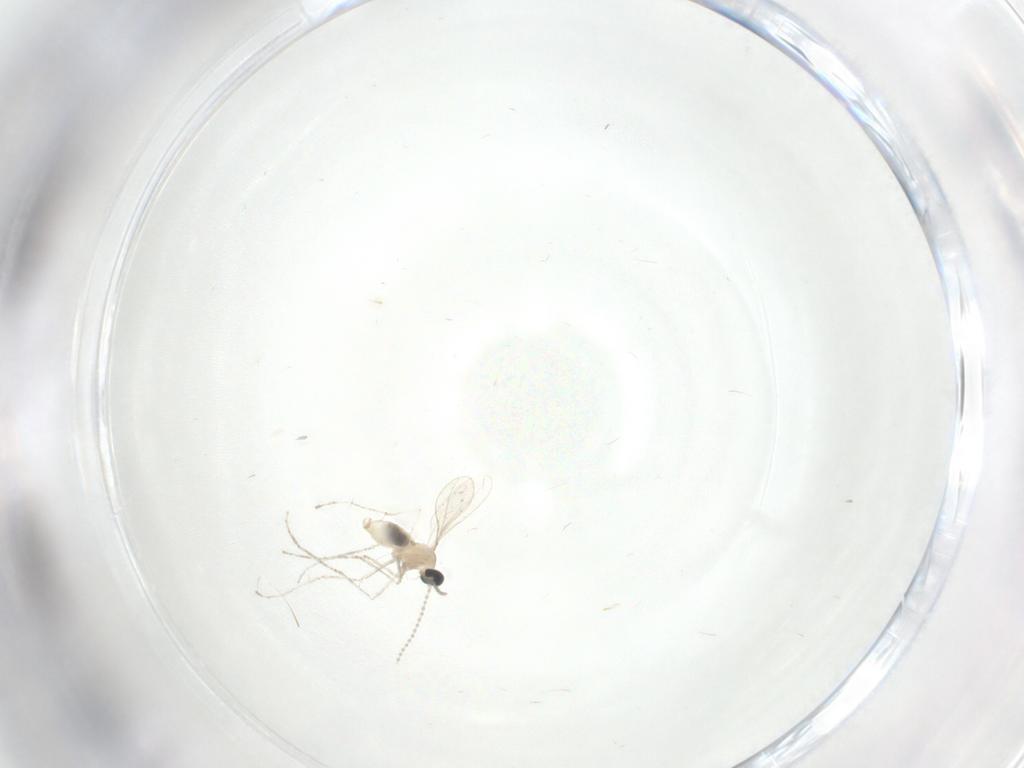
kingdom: Animalia
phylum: Arthropoda
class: Insecta
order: Diptera
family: Cecidomyiidae
